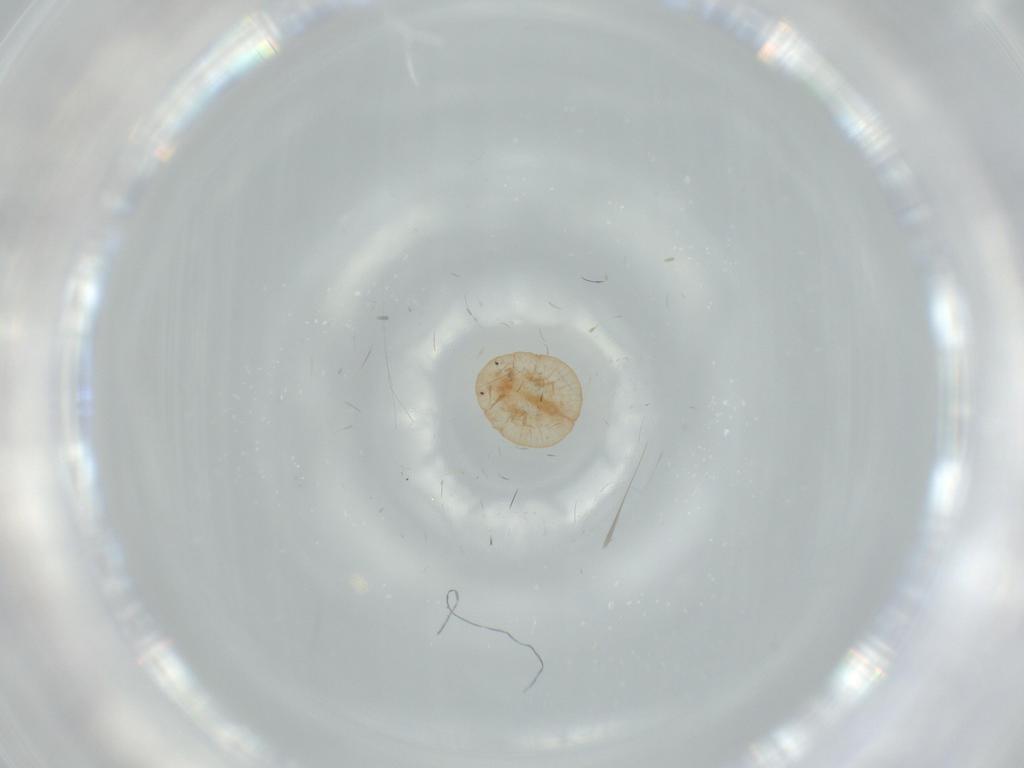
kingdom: Animalia
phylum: Arthropoda
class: Insecta
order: Diptera
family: Dolichopodidae
